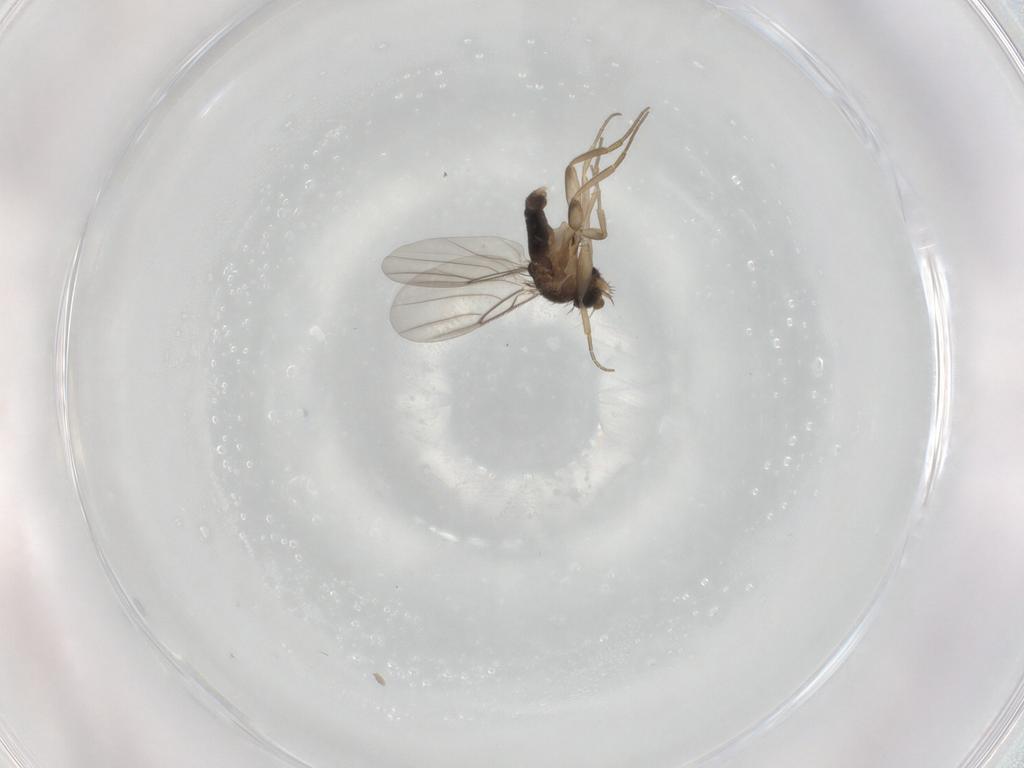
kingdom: Animalia
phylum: Arthropoda
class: Insecta
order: Diptera
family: Phoridae
